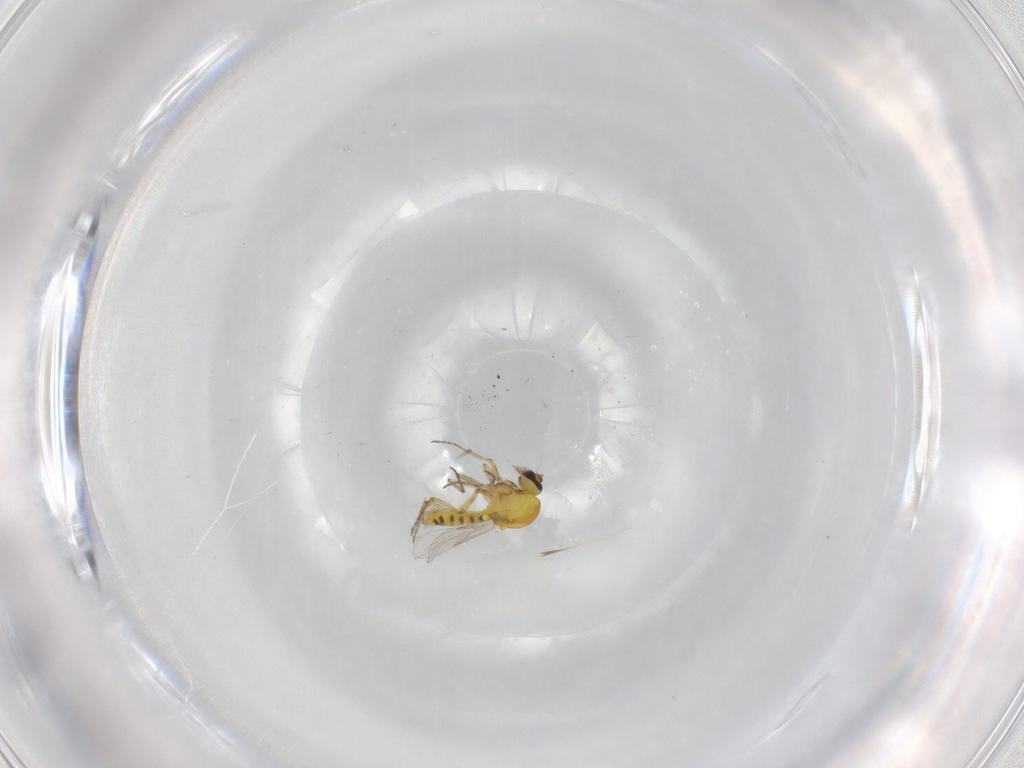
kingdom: Animalia
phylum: Arthropoda
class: Insecta
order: Diptera
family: Ceratopogonidae
